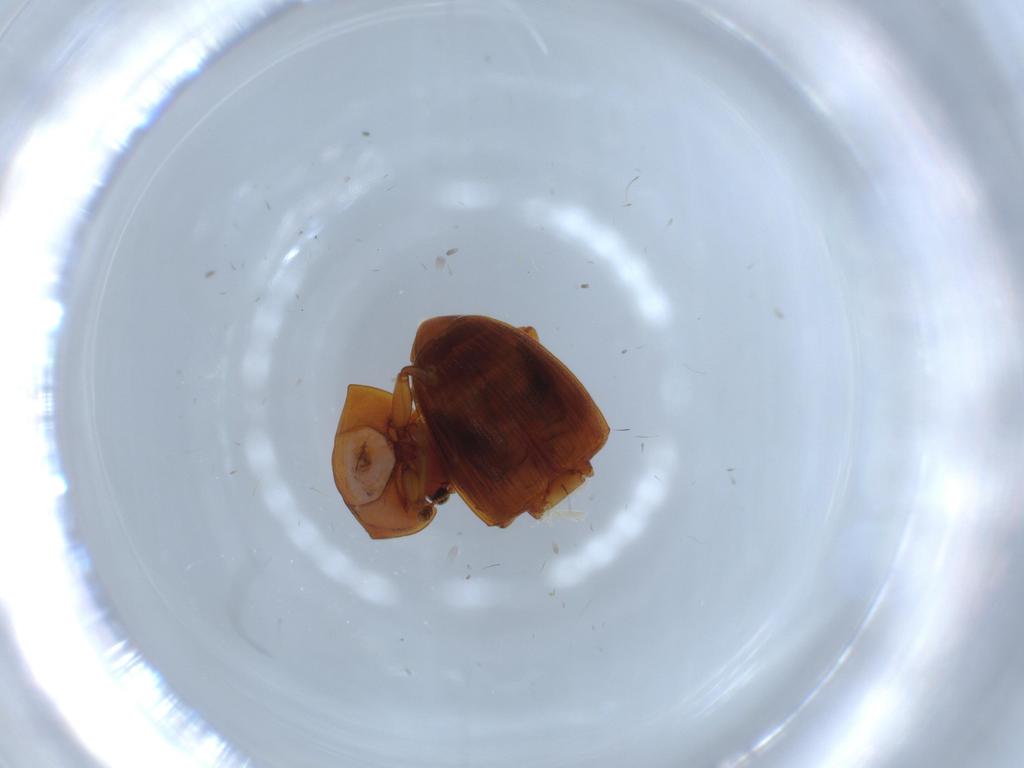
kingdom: Animalia
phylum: Arthropoda
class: Insecta
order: Coleoptera
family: Nitidulidae
